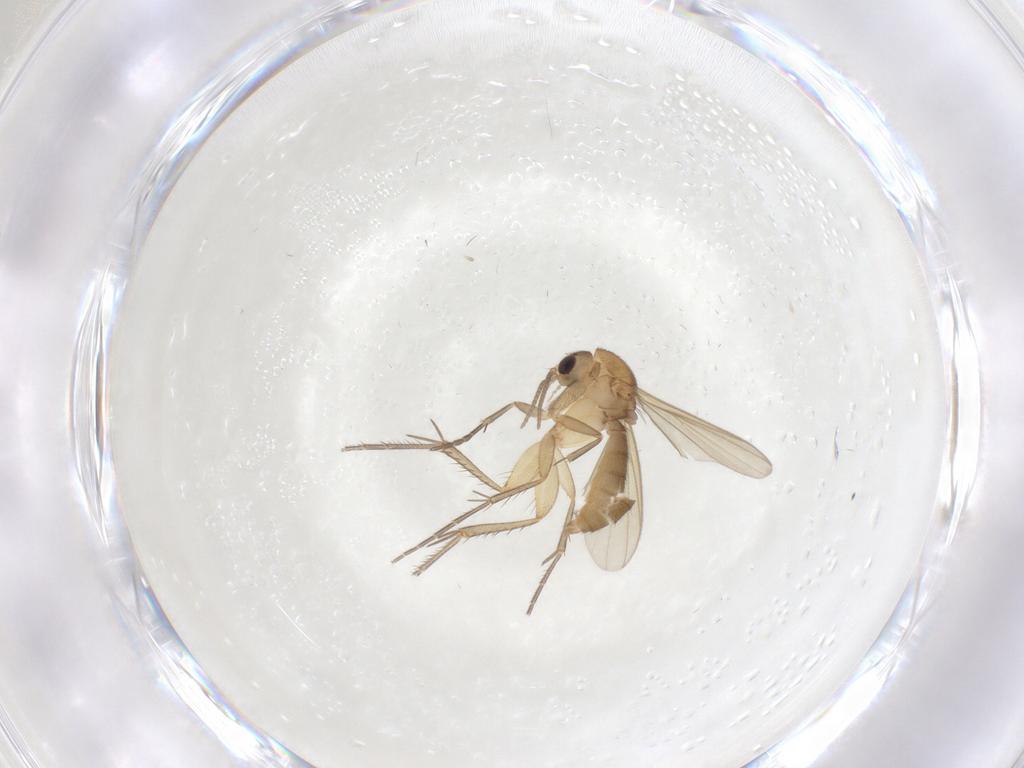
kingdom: Animalia
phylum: Arthropoda
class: Insecta
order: Diptera
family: Mycetophilidae
